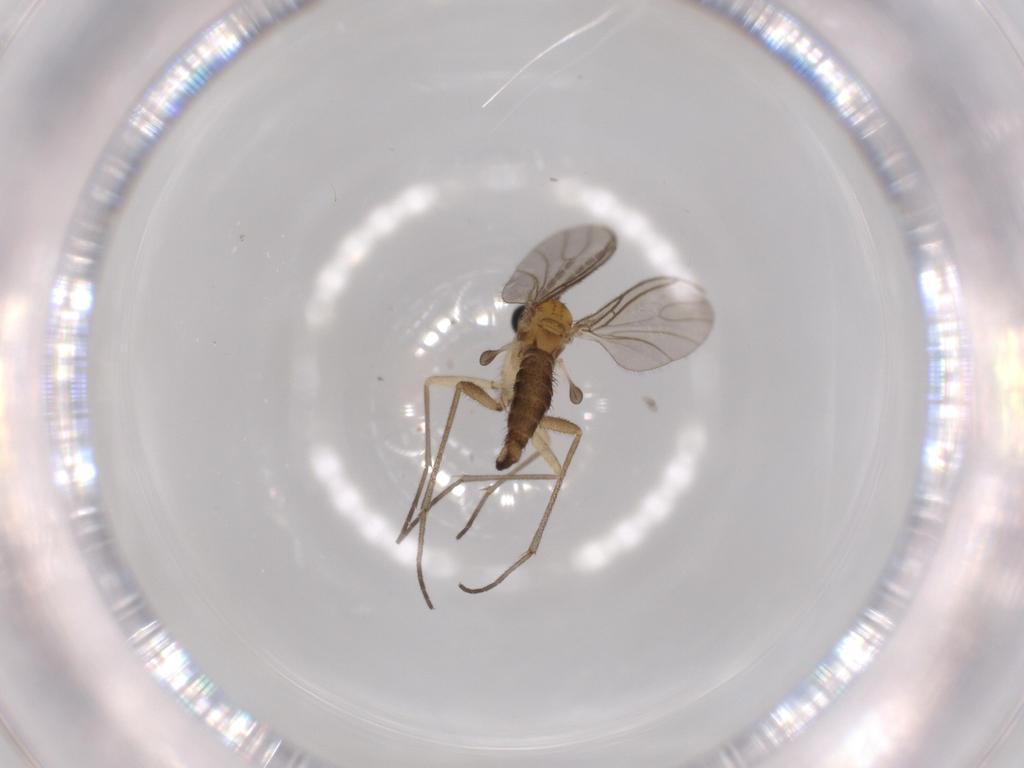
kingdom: Animalia
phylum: Arthropoda
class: Insecta
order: Diptera
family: Sciaridae
